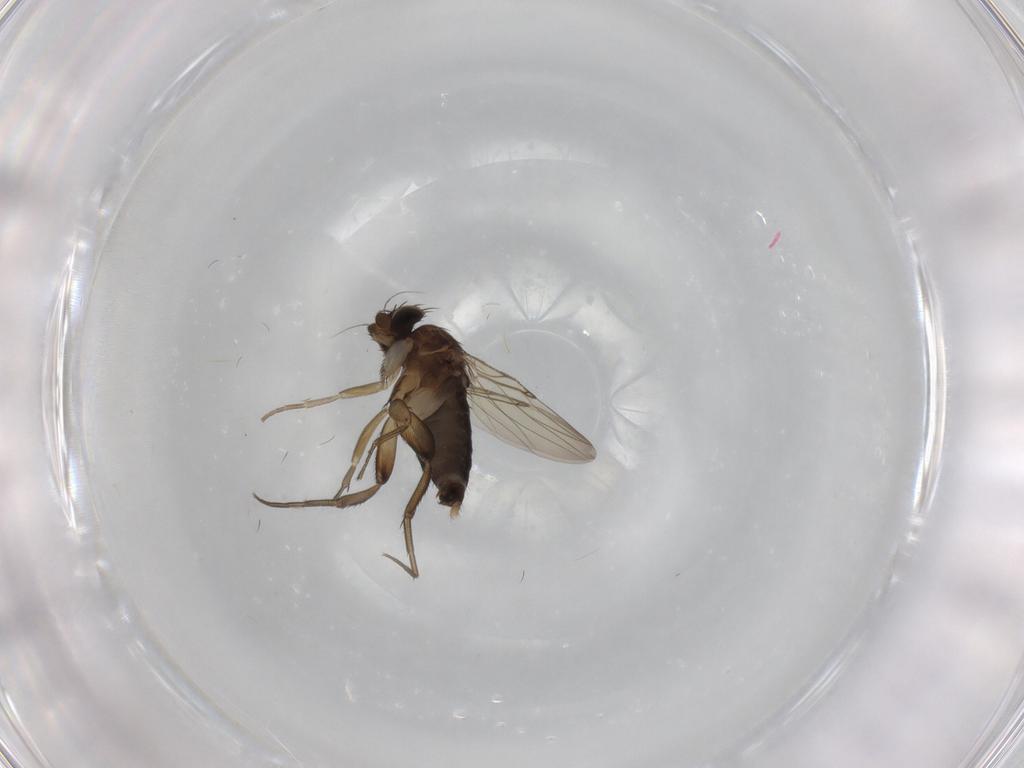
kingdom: Animalia
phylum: Arthropoda
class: Insecta
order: Diptera
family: Phoridae
